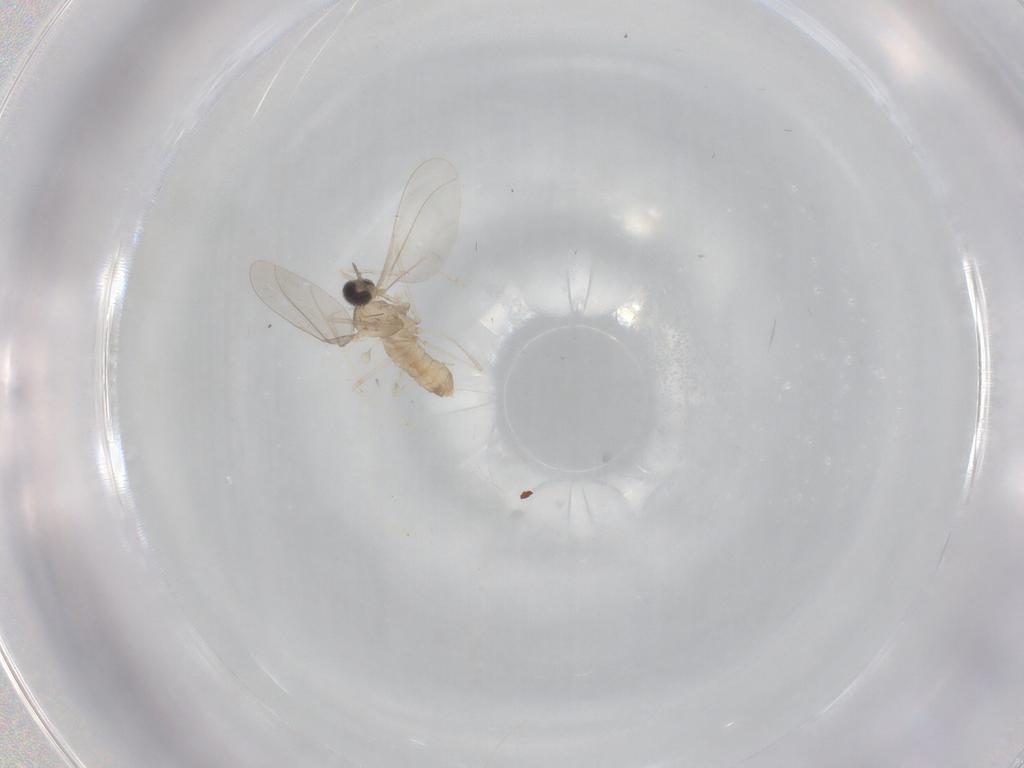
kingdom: Animalia
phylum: Arthropoda
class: Insecta
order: Diptera
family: Cecidomyiidae
